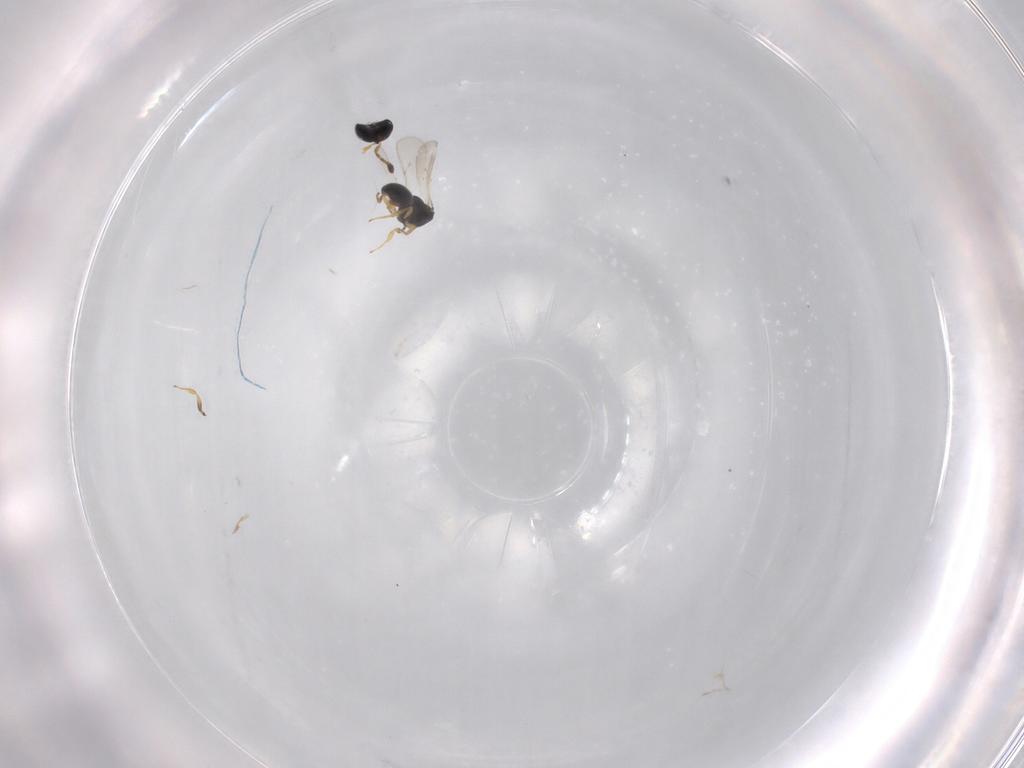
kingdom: Animalia
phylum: Arthropoda
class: Insecta
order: Hymenoptera
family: Scelionidae
